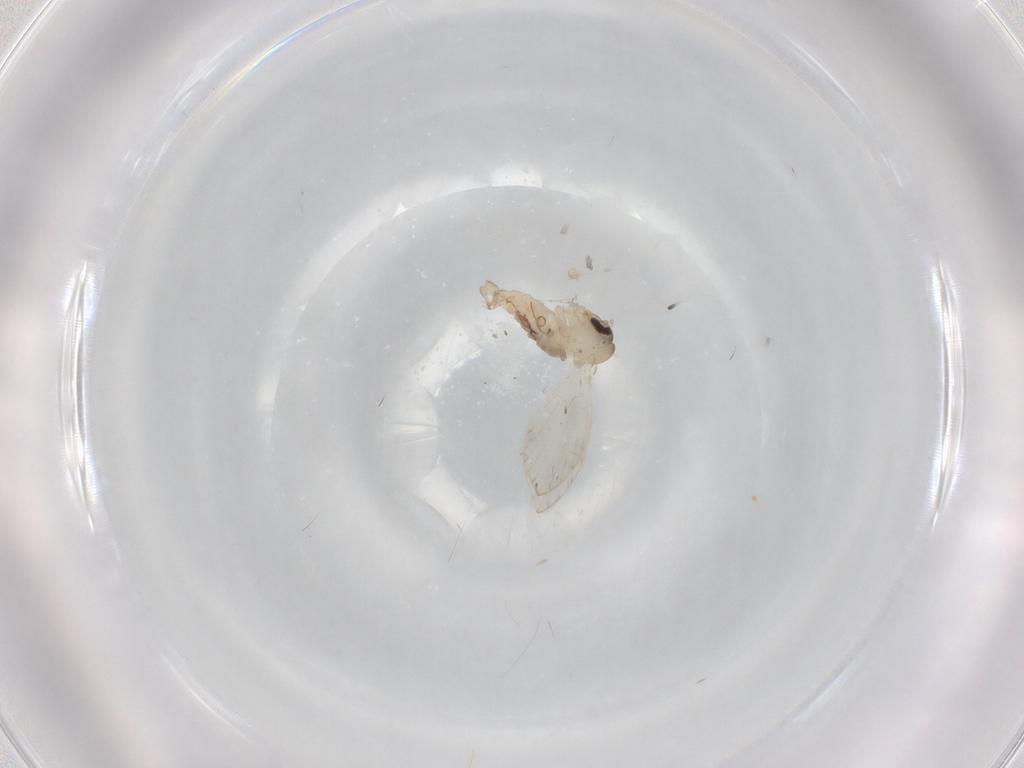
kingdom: Animalia
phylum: Arthropoda
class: Insecta
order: Diptera
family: Psychodidae
